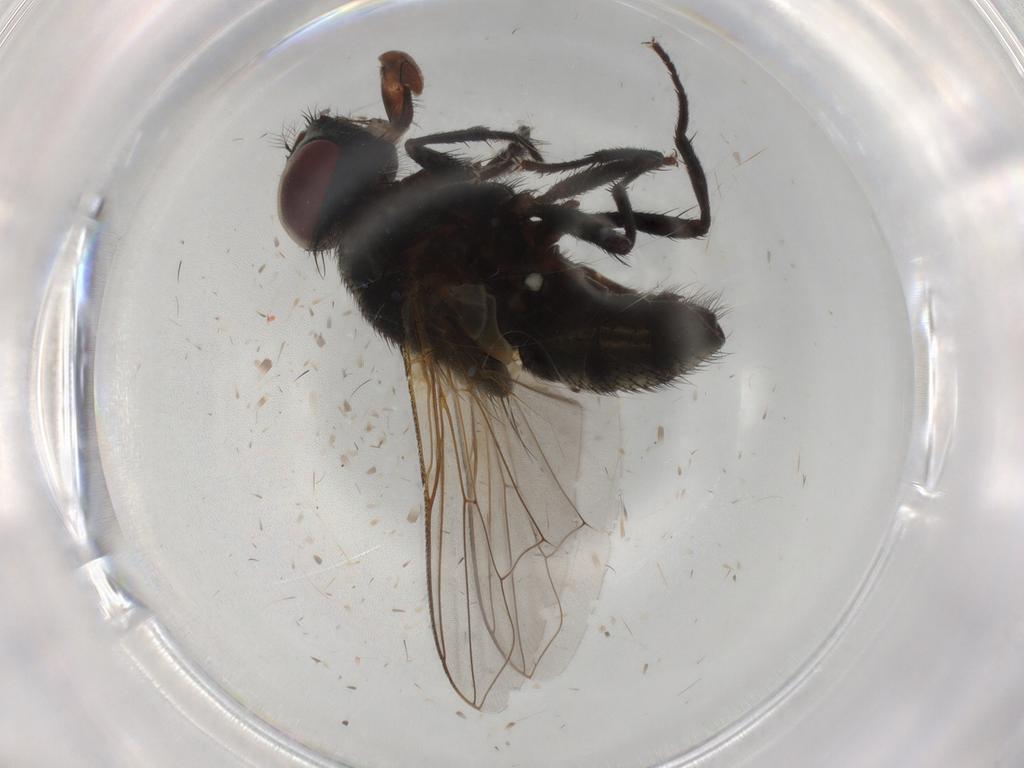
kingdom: Animalia
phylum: Arthropoda
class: Insecta
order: Diptera
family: Muscidae
